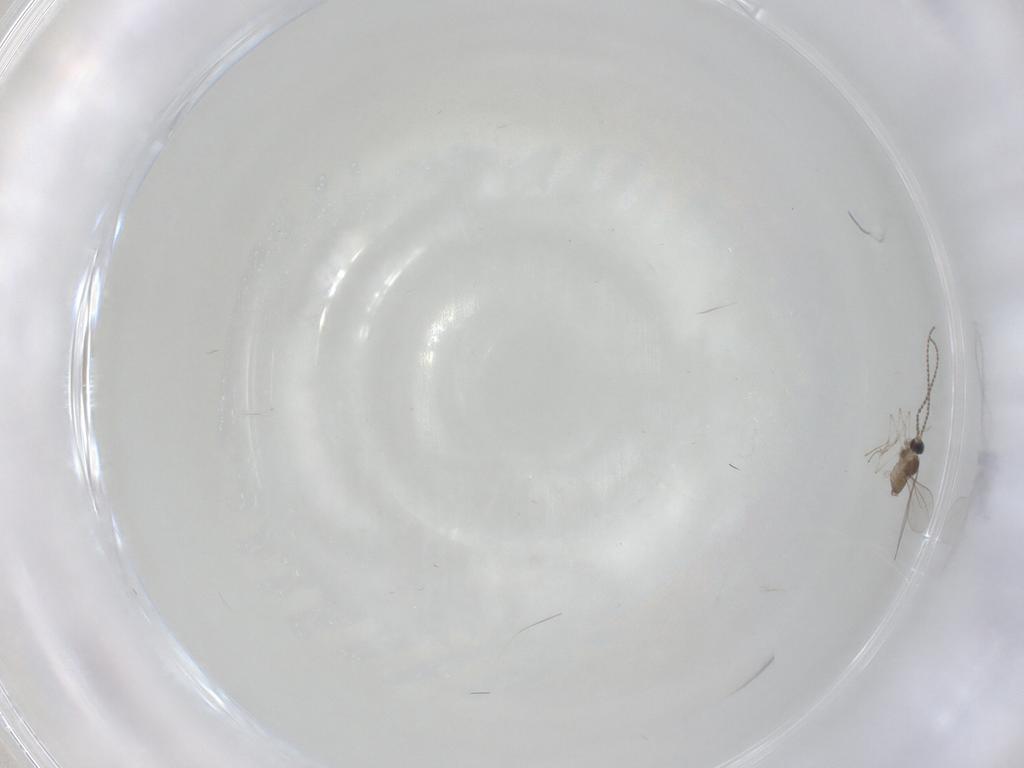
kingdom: Animalia
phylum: Arthropoda
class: Insecta
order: Diptera
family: Cecidomyiidae
